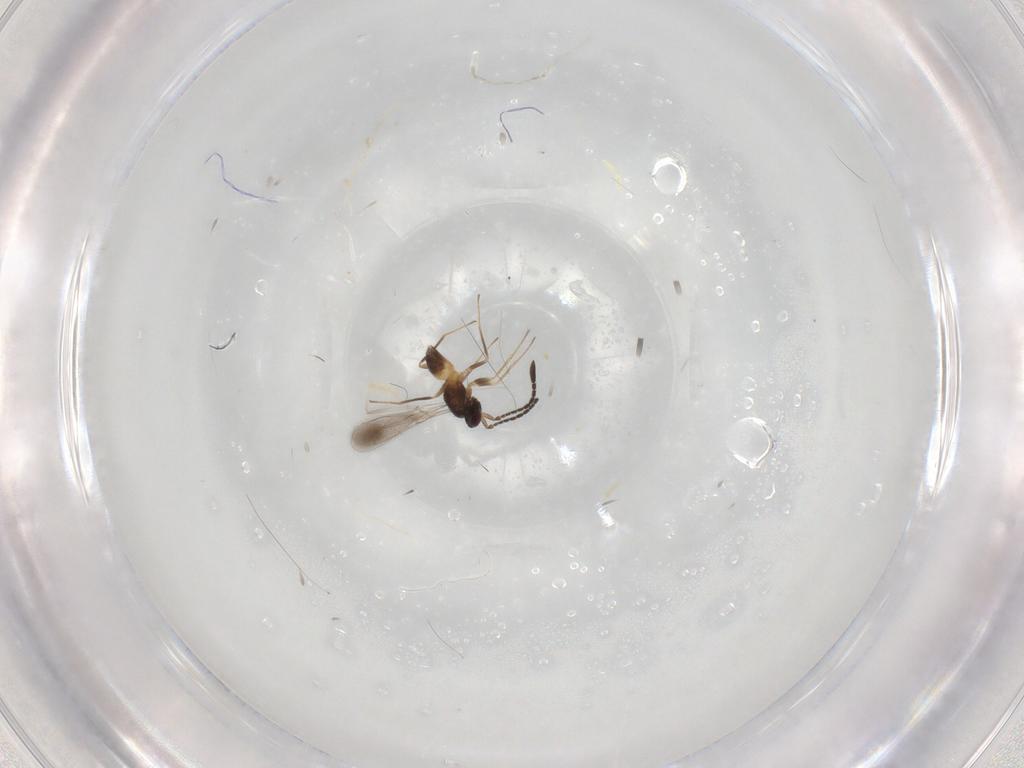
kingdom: Animalia
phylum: Arthropoda
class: Insecta
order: Hymenoptera
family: Mymaridae
